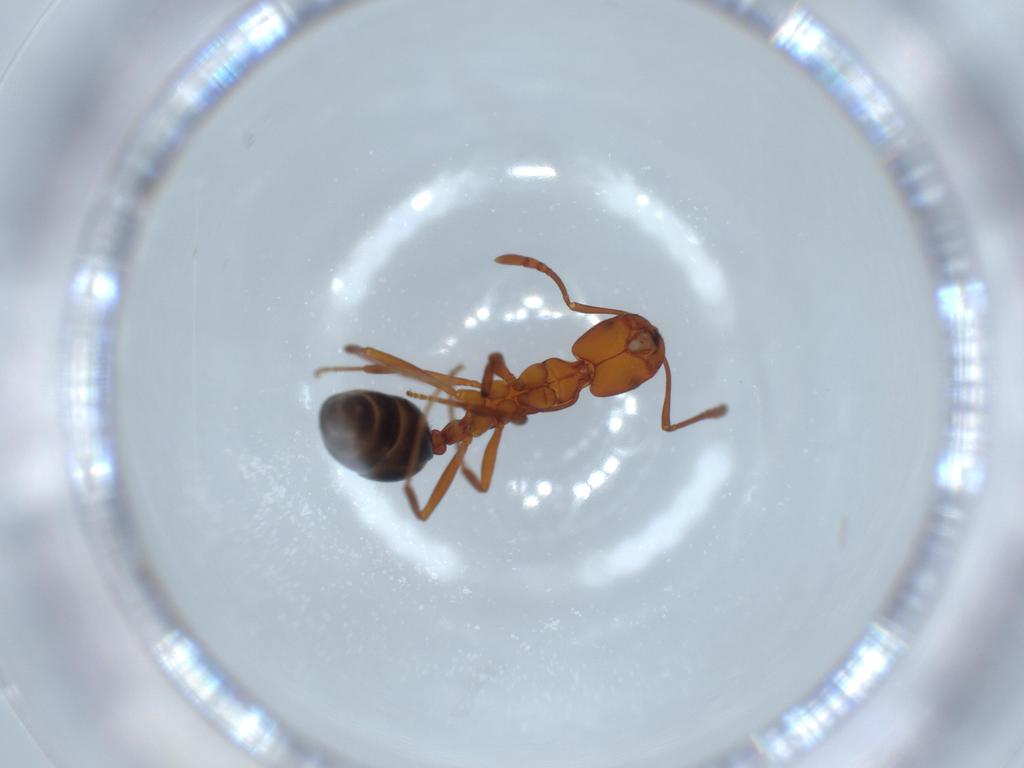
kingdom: Animalia
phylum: Arthropoda
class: Insecta
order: Hymenoptera
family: Formicidae
